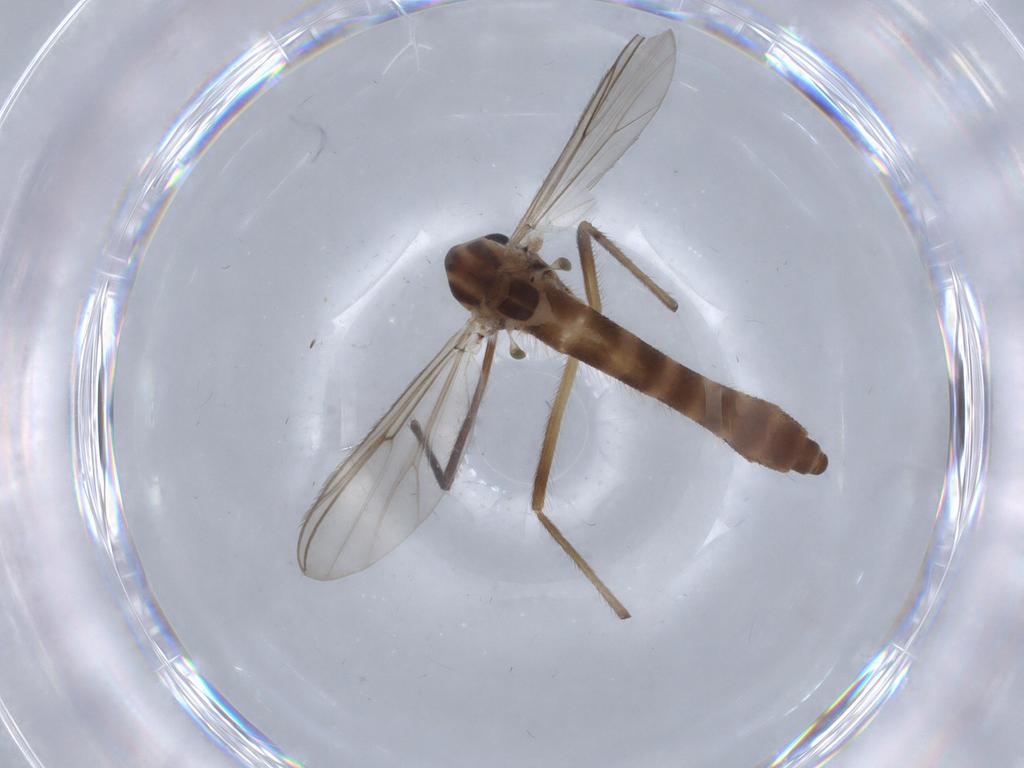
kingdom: Animalia
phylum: Arthropoda
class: Insecta
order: Diptera
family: Chironomidae
